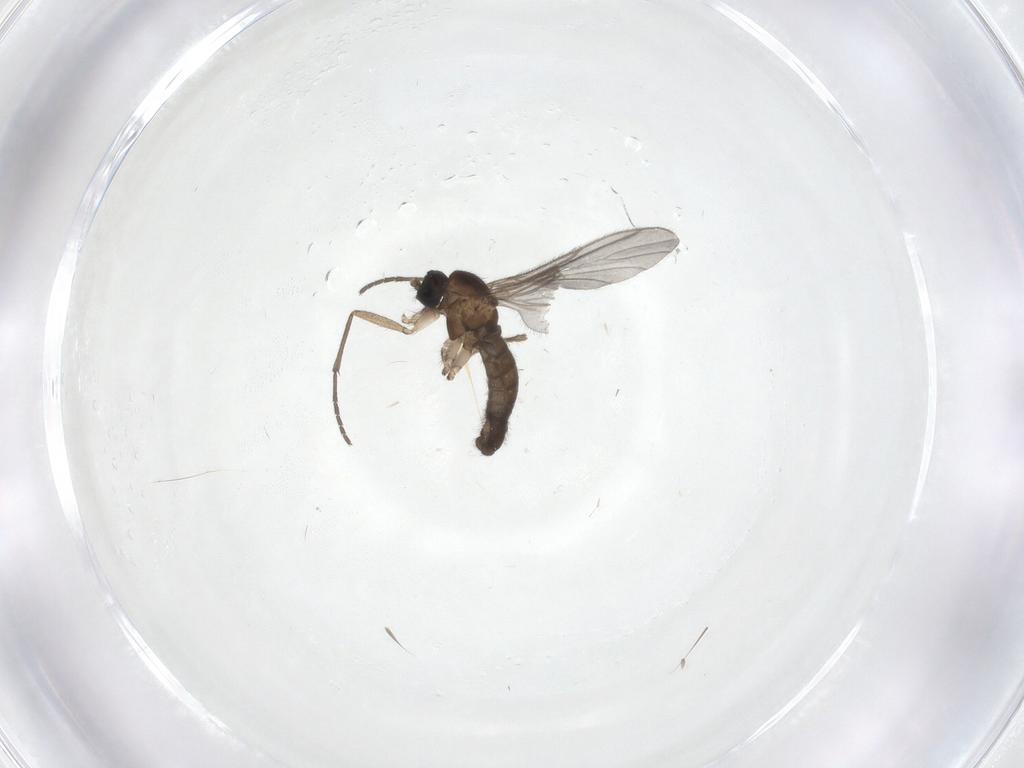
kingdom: Animalia
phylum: Arthropoda
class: Insecta
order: Diptera
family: Sciaridae
